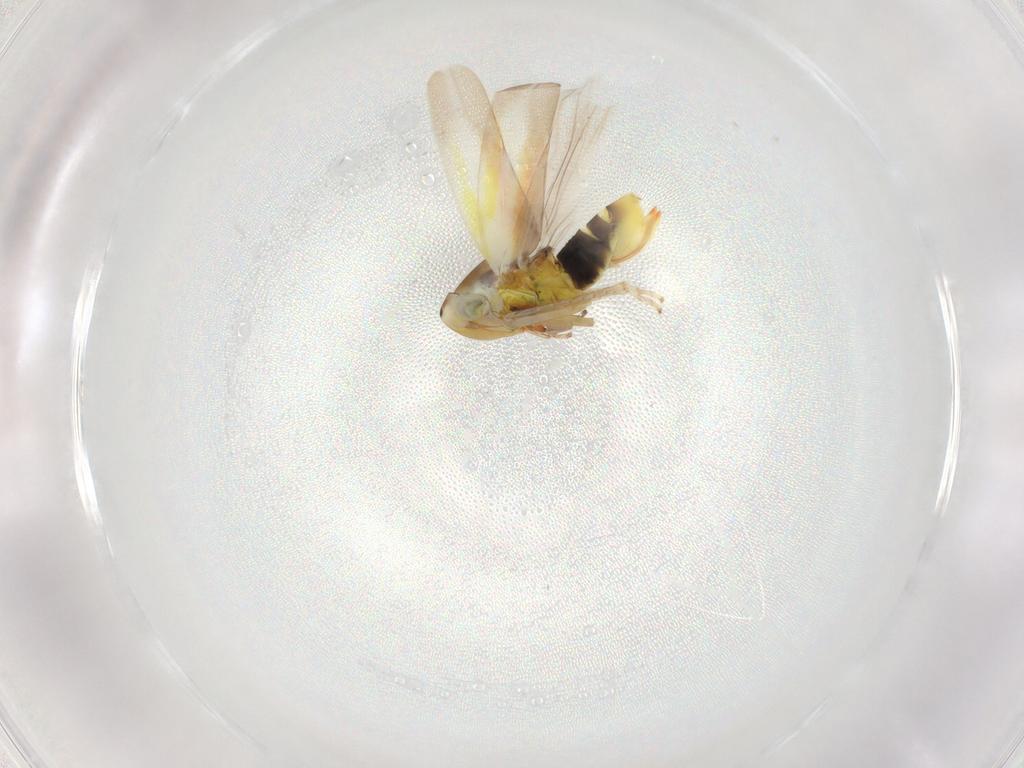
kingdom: Animalia
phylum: Arthropoda
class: Insecta
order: Hemiptera
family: Cicadellidae
